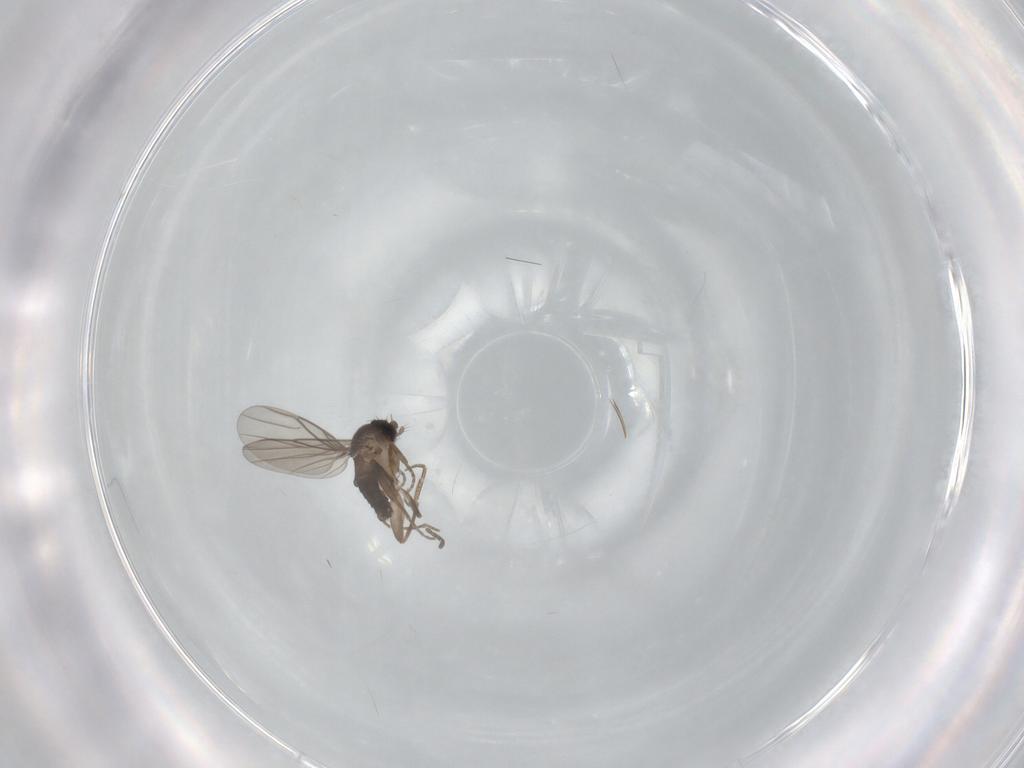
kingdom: Animalia
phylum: Arthropoda
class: Insecta
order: Diptera
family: Cecidomyiidae
